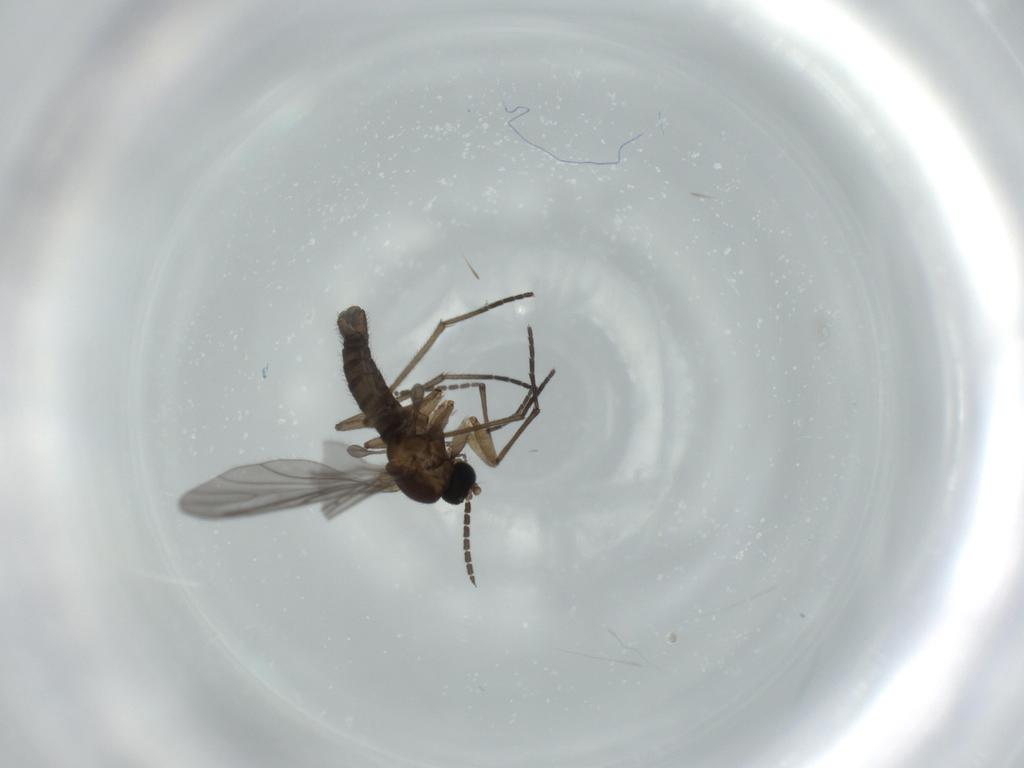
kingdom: Animalia
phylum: Arthropoda
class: Insecta
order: Diptera
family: Sciaridae
